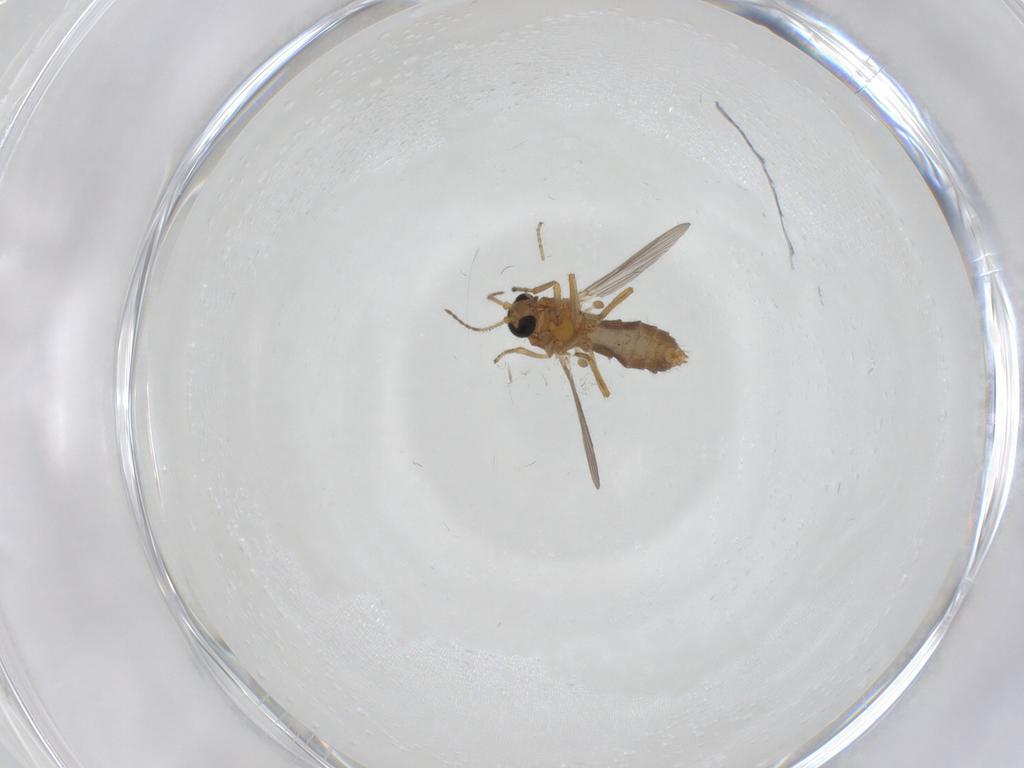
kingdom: Animalia
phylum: Arthropoda
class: Insecta
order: Diptera
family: Ceratopogonidae
